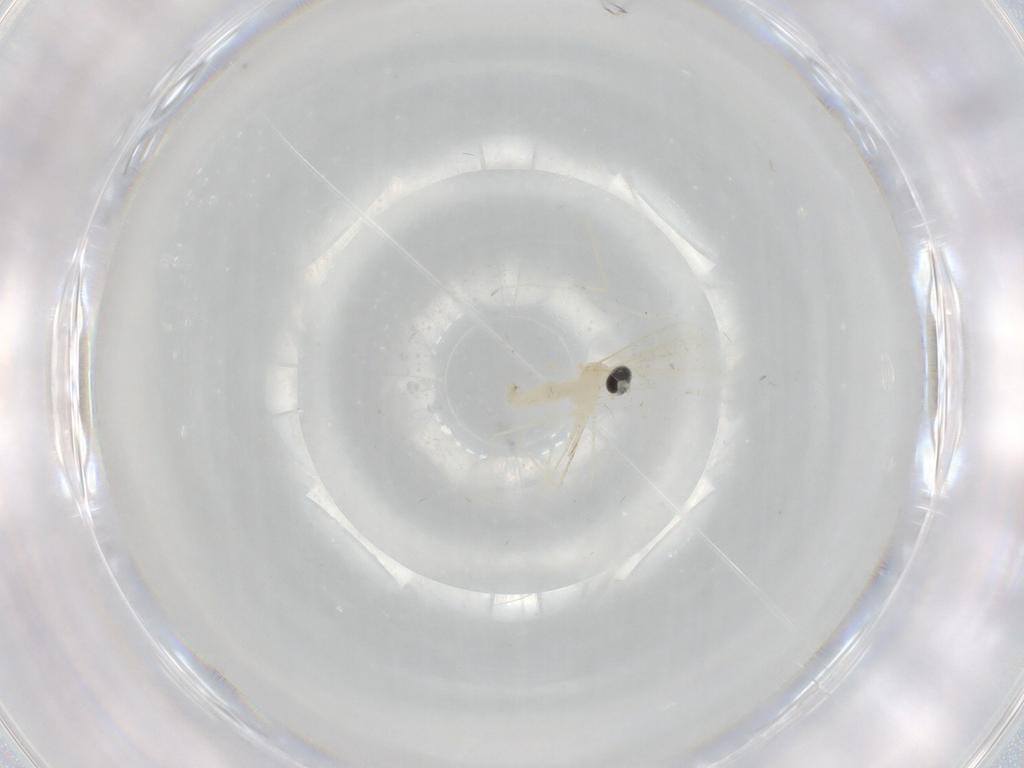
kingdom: Animalia
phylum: Arthropoda
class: Insecta
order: Diptera
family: Cecidomyiidae
